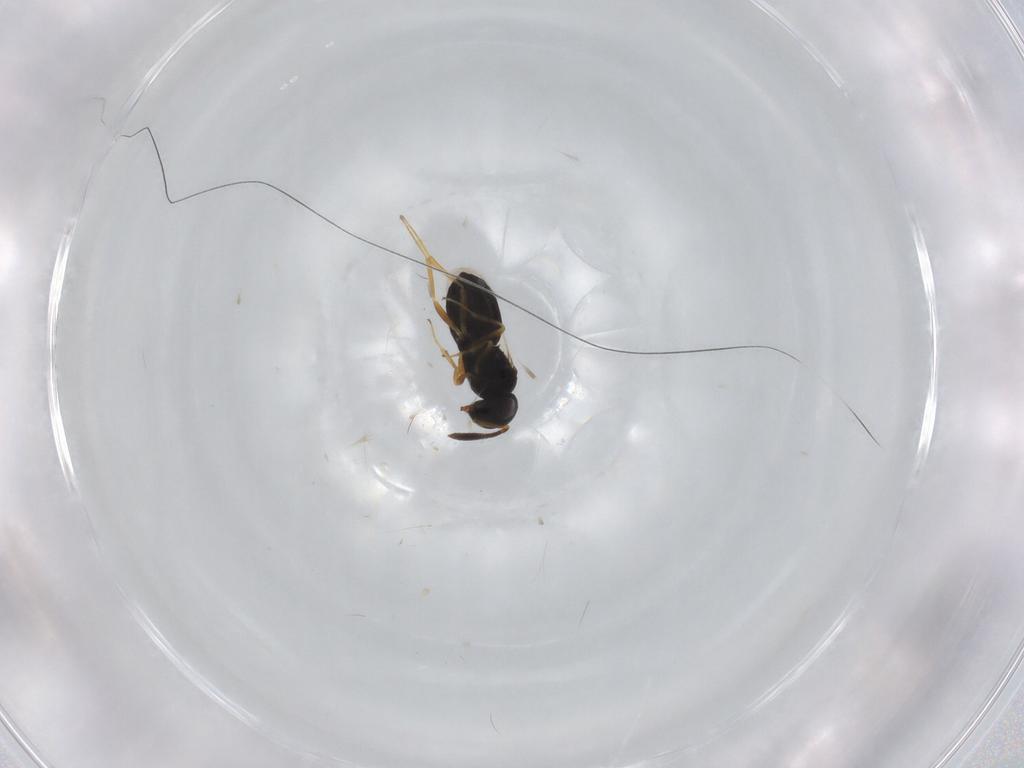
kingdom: Animalia
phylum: Arthropoda
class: Insecta
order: Hymenoptera
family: Scelionidae
